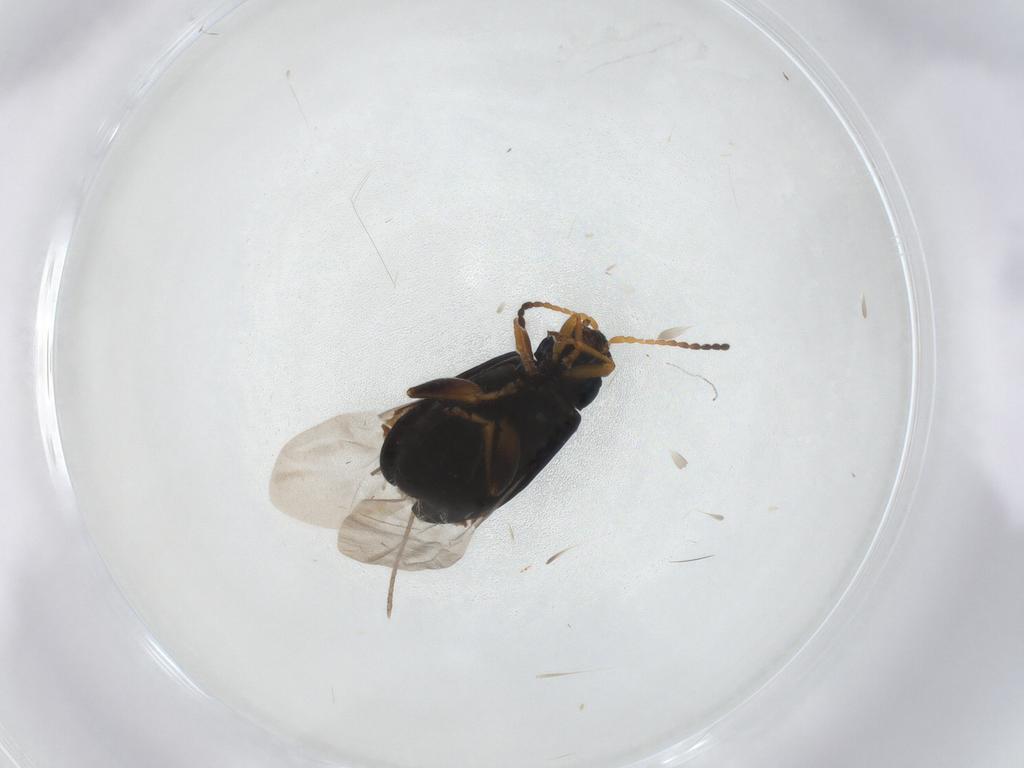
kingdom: Animalia
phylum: Arthropoda
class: Insecta
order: Coleoptera
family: Chrysomelidae
